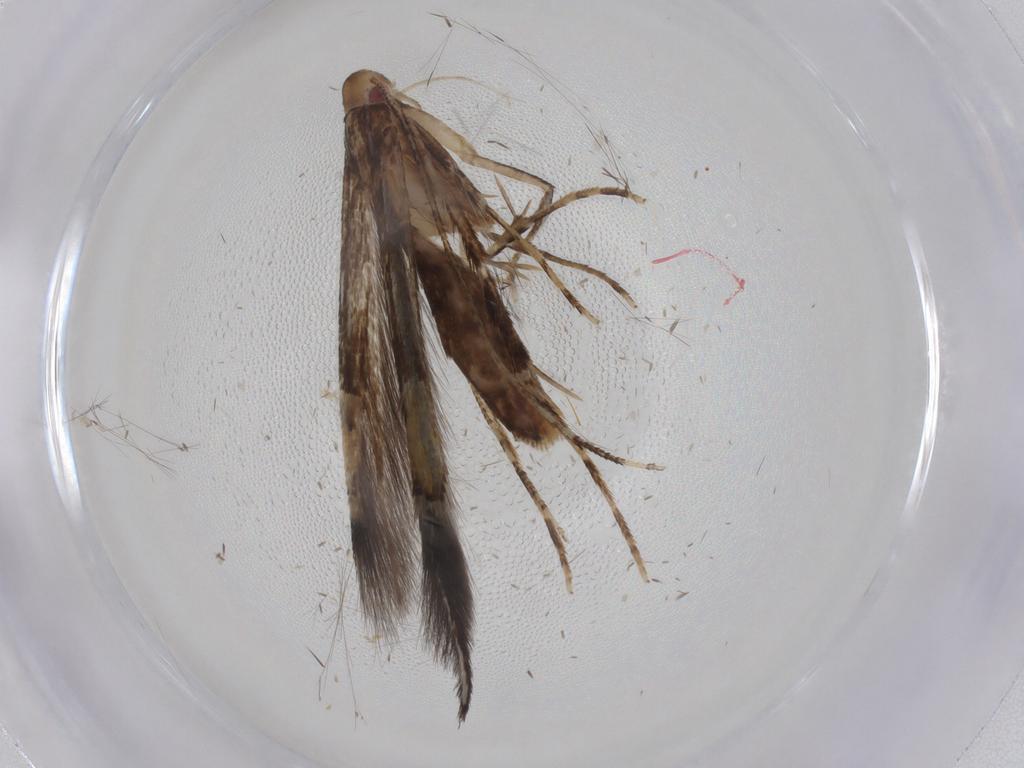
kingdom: Animalia
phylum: Arthropoda
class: Insecta
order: Lepidoptera
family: Cosmopterigidae
